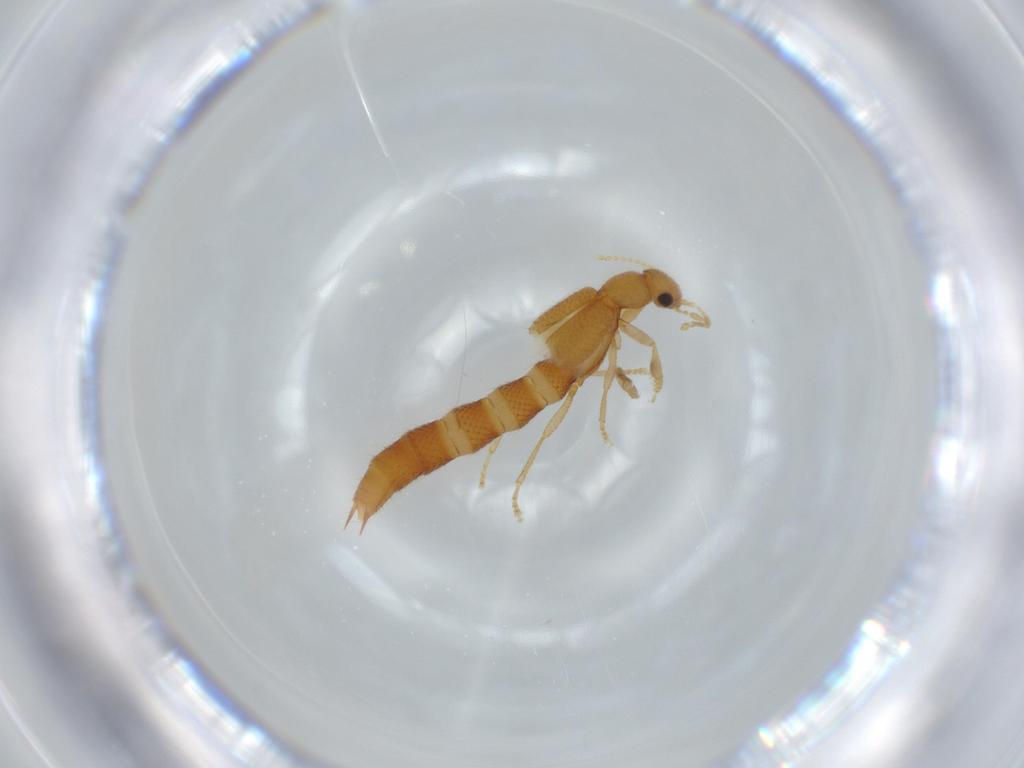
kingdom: Animalia
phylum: Arthropoda
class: Insecta
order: Coleoptera
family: Staphylinidae
